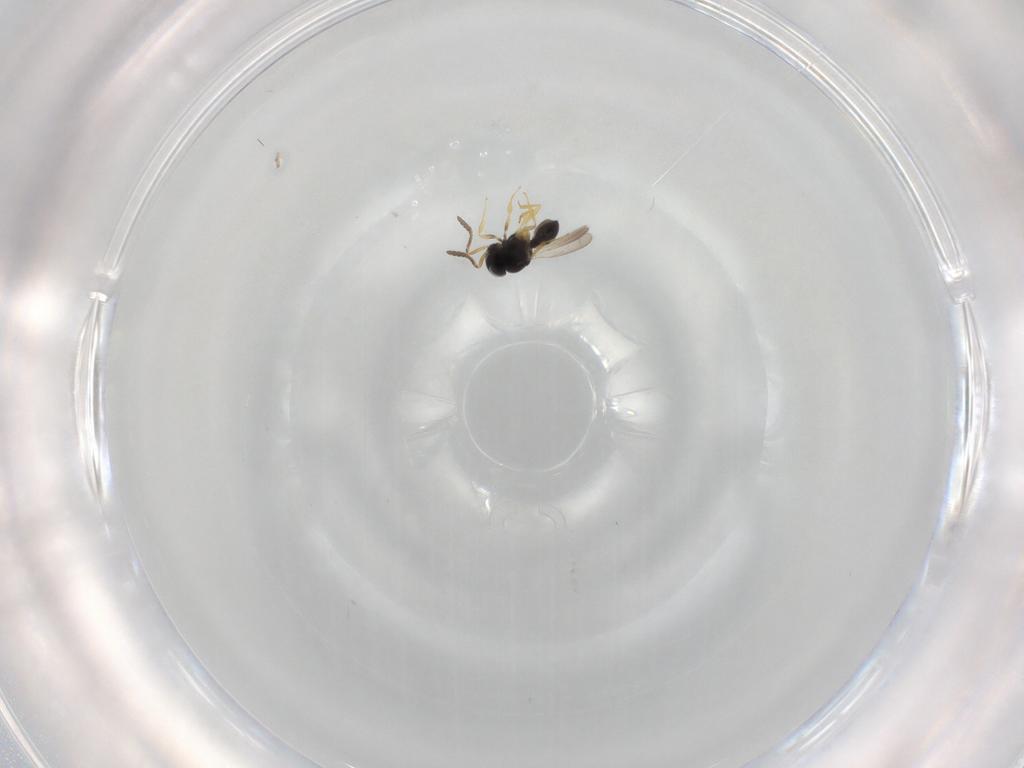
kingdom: Animalia
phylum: Arthropoda
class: Insecta
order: Hymenoptera
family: Scelionidae
